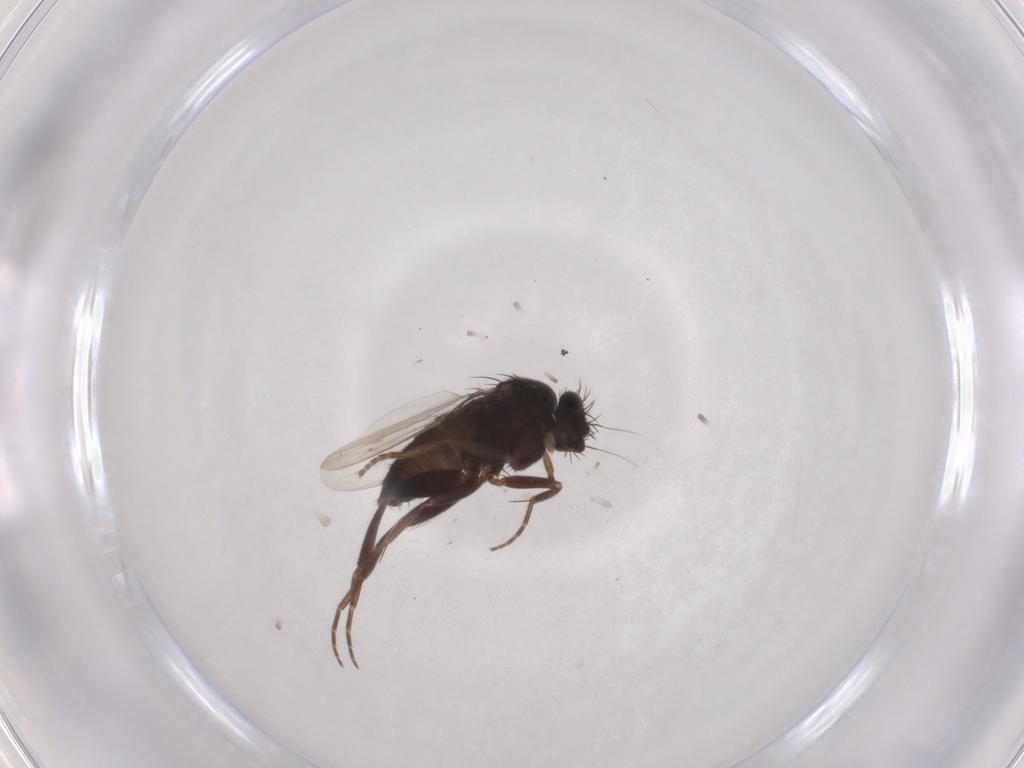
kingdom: Animalia
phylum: Arthropoda
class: Insecta
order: Diptera
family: Phoridae
